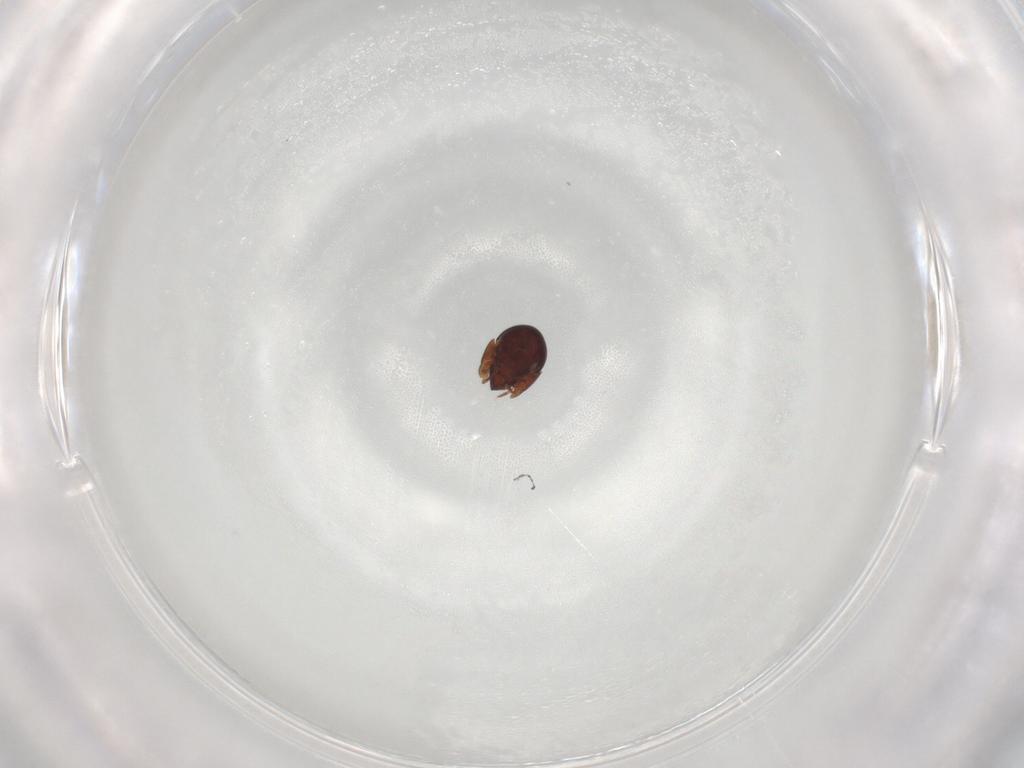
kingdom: Animalia
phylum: Arthropoda
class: Arachnida
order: Sarcoptiformes
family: Galumnidae
